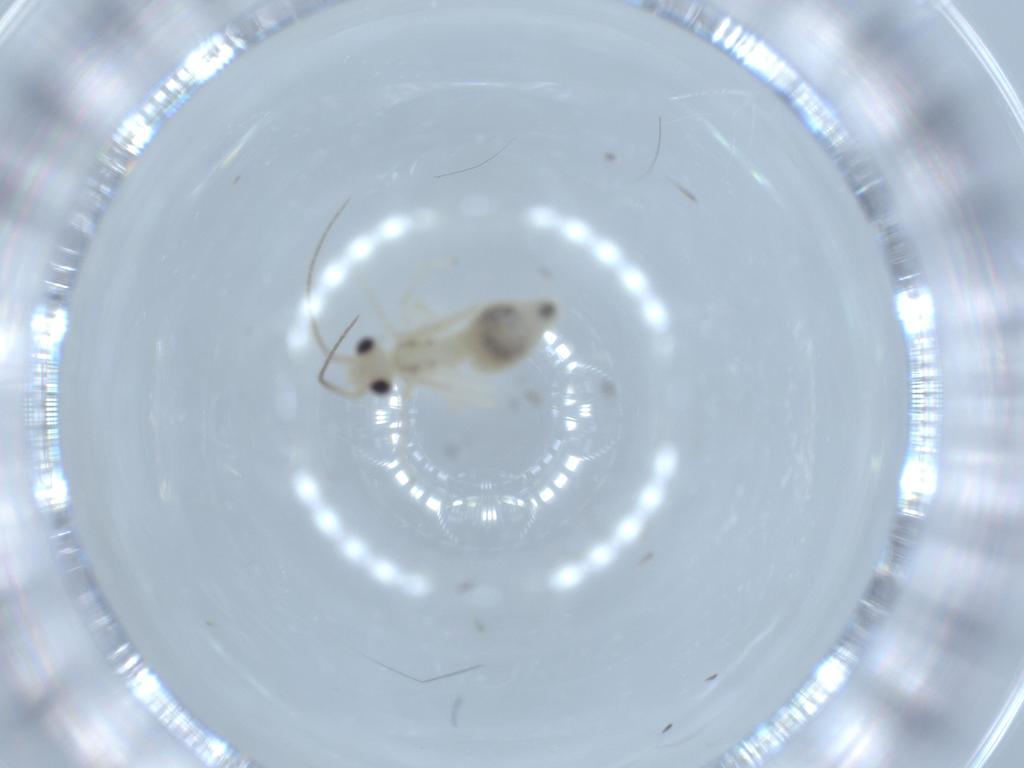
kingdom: Animalia
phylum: Arthropoda
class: Insecta
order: Psocodea
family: Caeciliusidae
